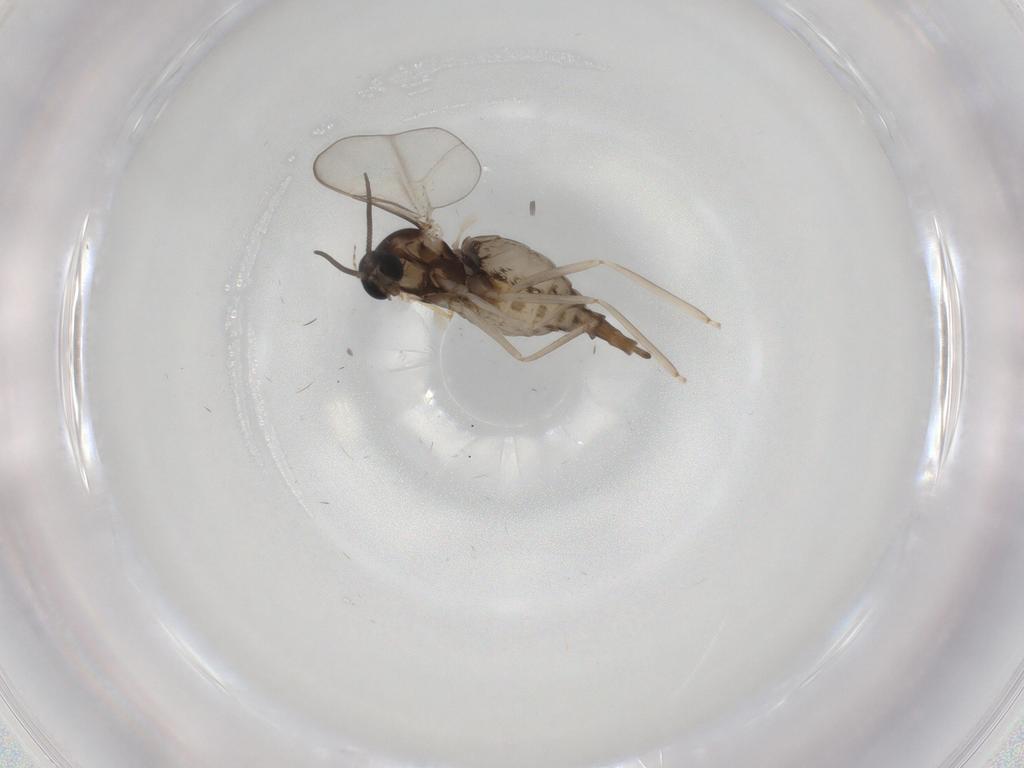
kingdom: Animalia
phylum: Arthropoda
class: Insecta
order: Diptera
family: Cecidomyiidae
